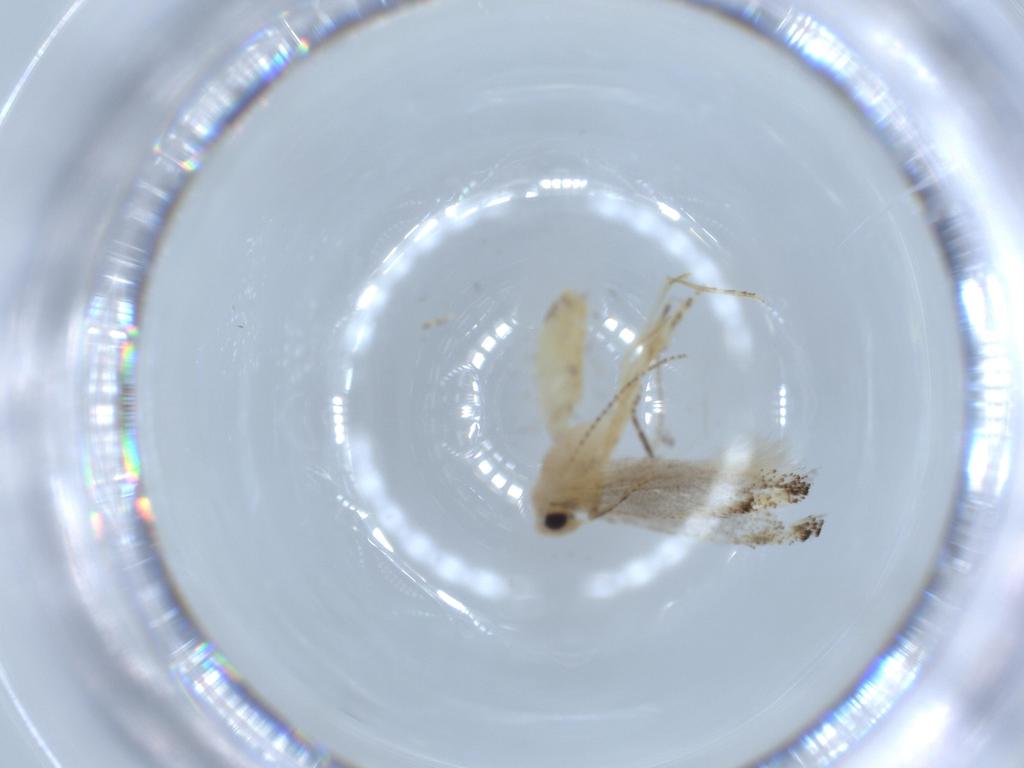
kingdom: Animalia
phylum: Arthropoda
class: Insecta
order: Lepidoptera
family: Bucculatricidae
